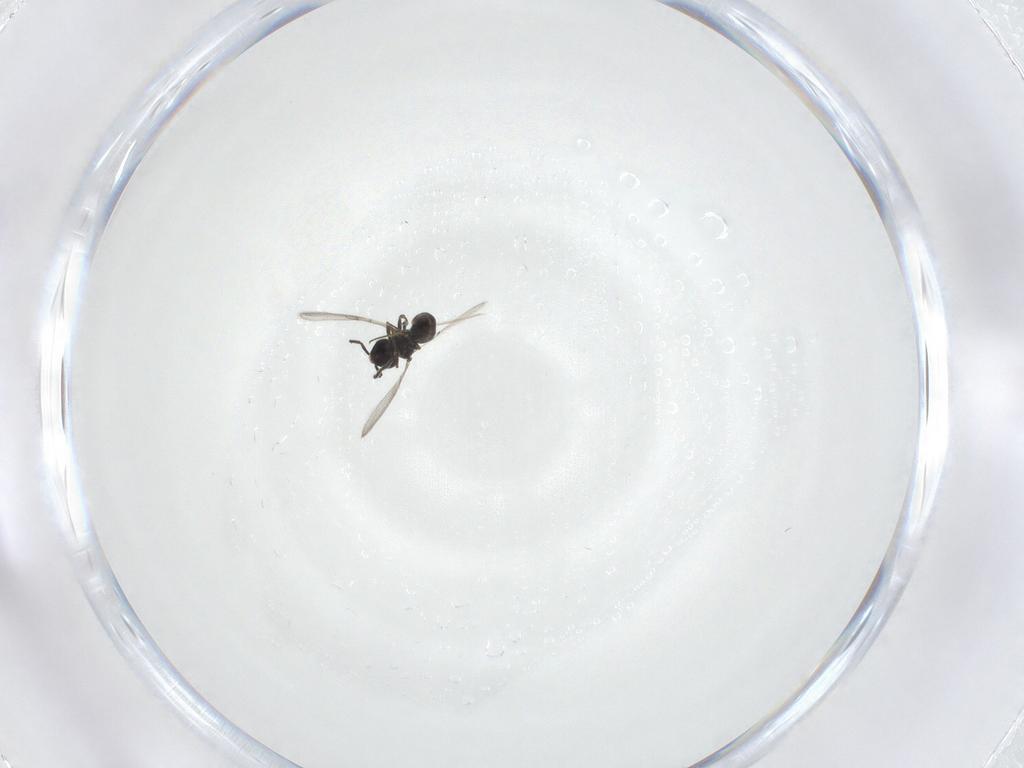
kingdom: Animalia
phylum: Arthropoda
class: Insecta
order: Hymenoptera
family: Scelionidae
